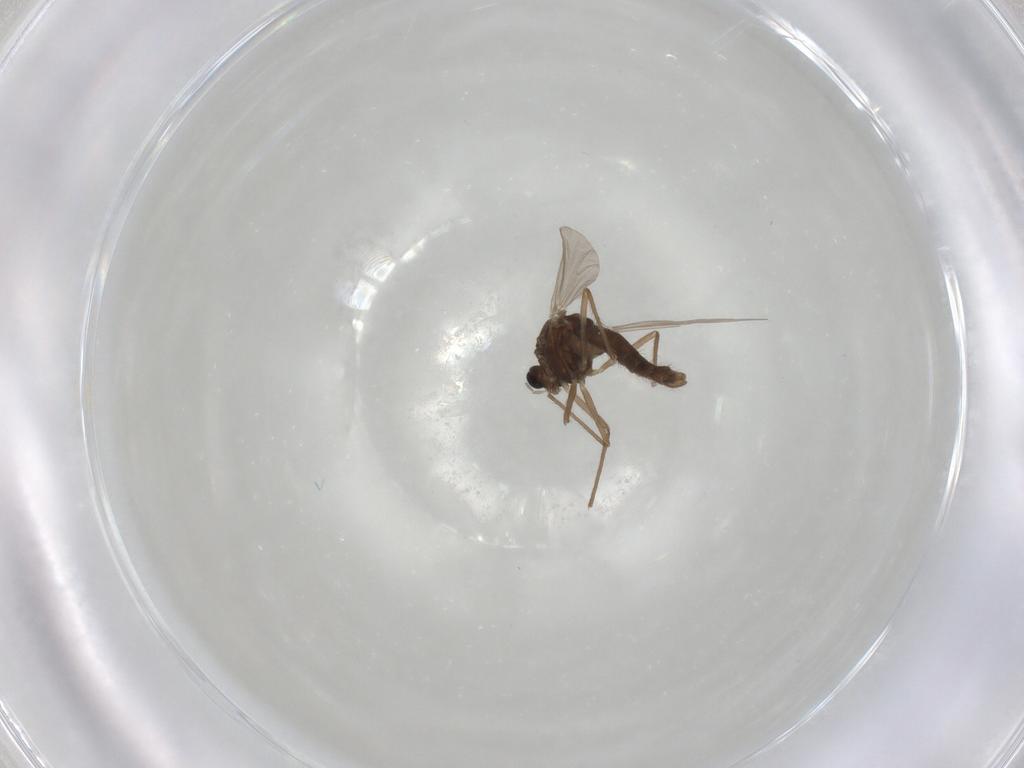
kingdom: Animalia
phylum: Arthropoda
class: Insecta
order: Diptera
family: Chironomidae
